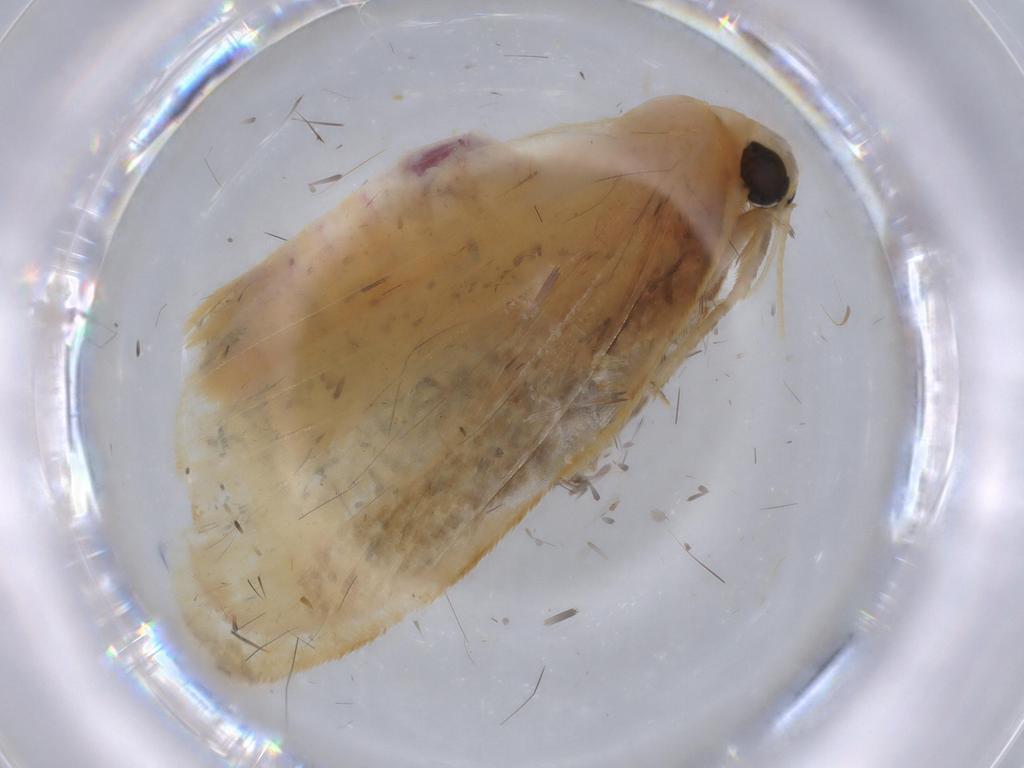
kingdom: Animalia
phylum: Arthropoda
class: Insecta
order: Lepidoptera
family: Erebidae
